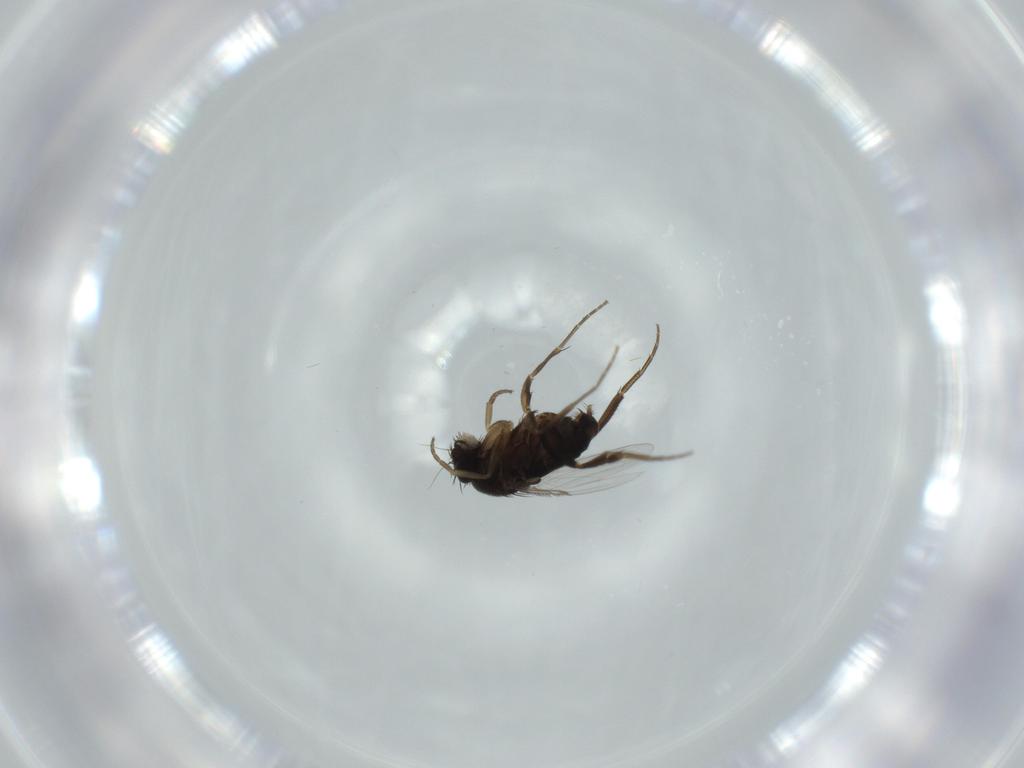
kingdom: Animalia
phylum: Arthropoda
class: Insecta
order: Diptera
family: Phoridae
